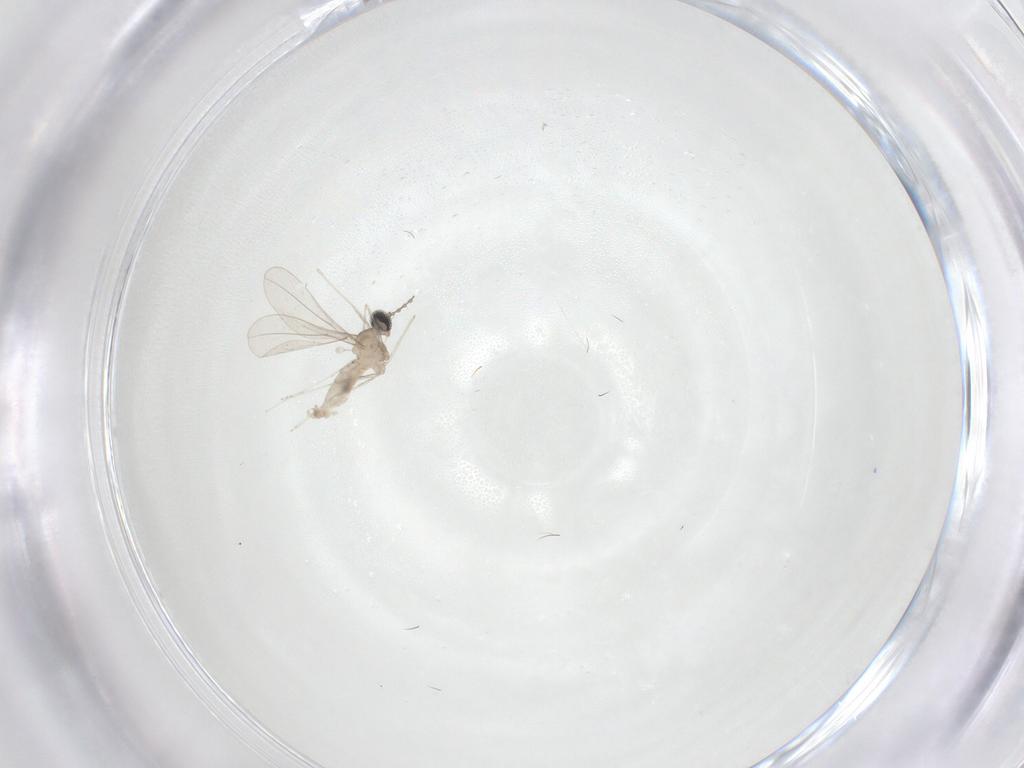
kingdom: Animalia
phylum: Arthropoda
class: Insecta
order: Diptera
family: Cecidomyiidae
